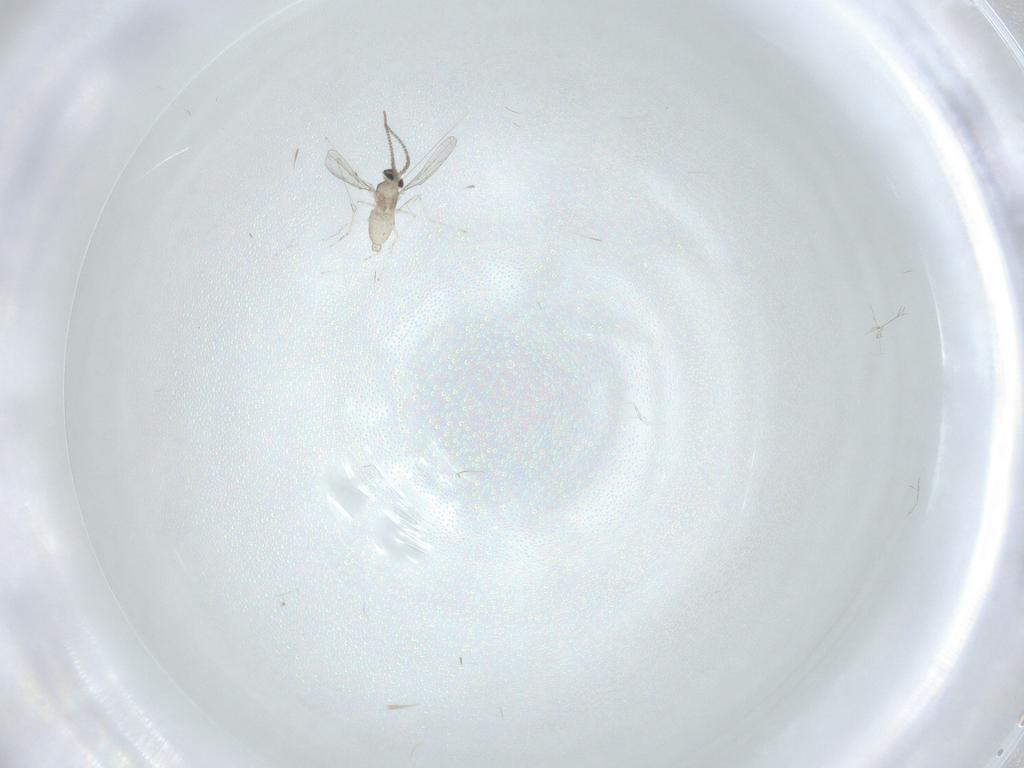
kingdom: Animalia
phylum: Arthropoda
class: Insecta
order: Diptera
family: Cecidomyiidae
